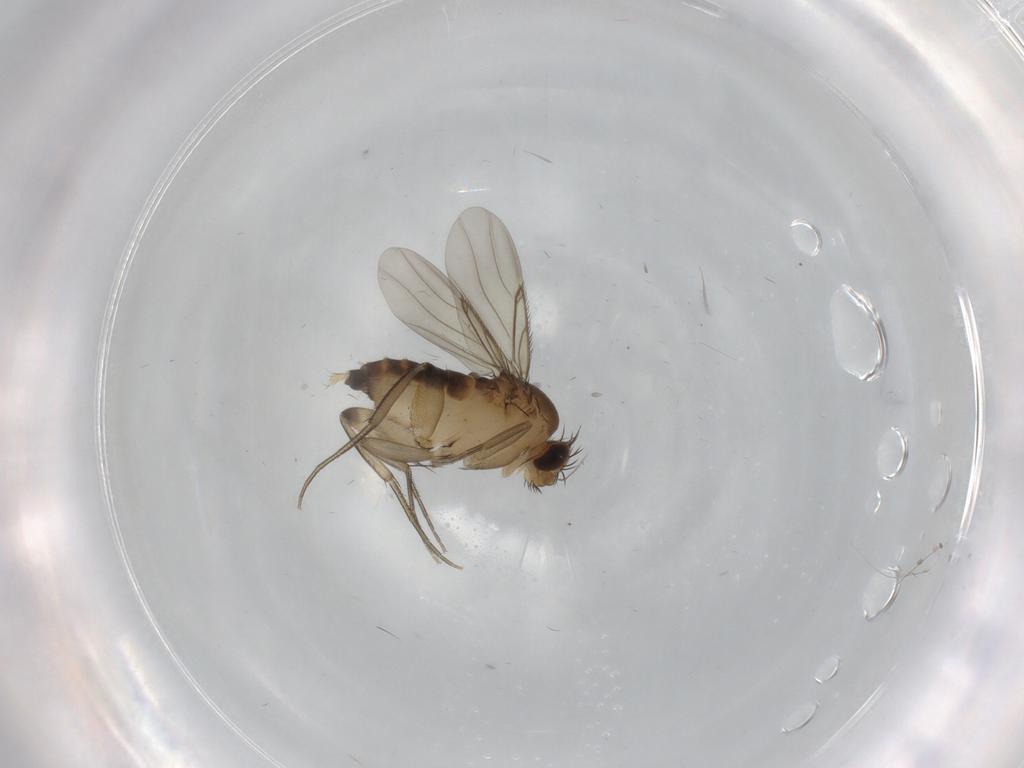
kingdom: Animalia
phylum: Arthropoda
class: Insecta
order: Diptera
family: Phoridae
